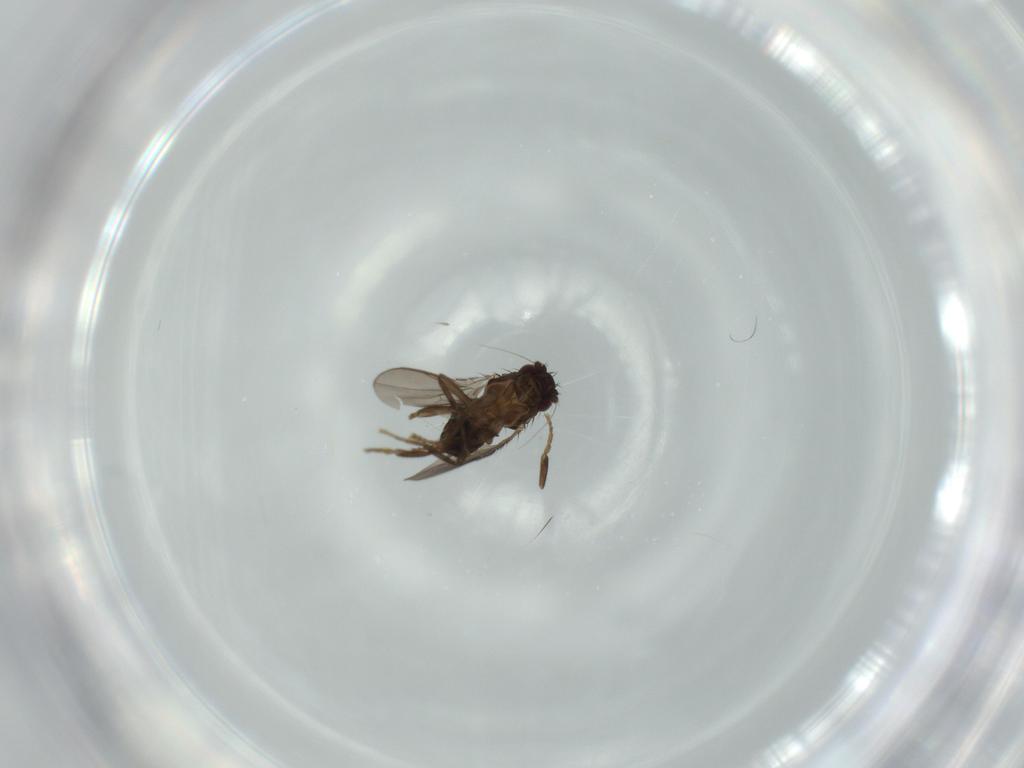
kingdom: Animalia
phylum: Arthropoda
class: Insecta
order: Diptera
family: Sphaeroceridae
